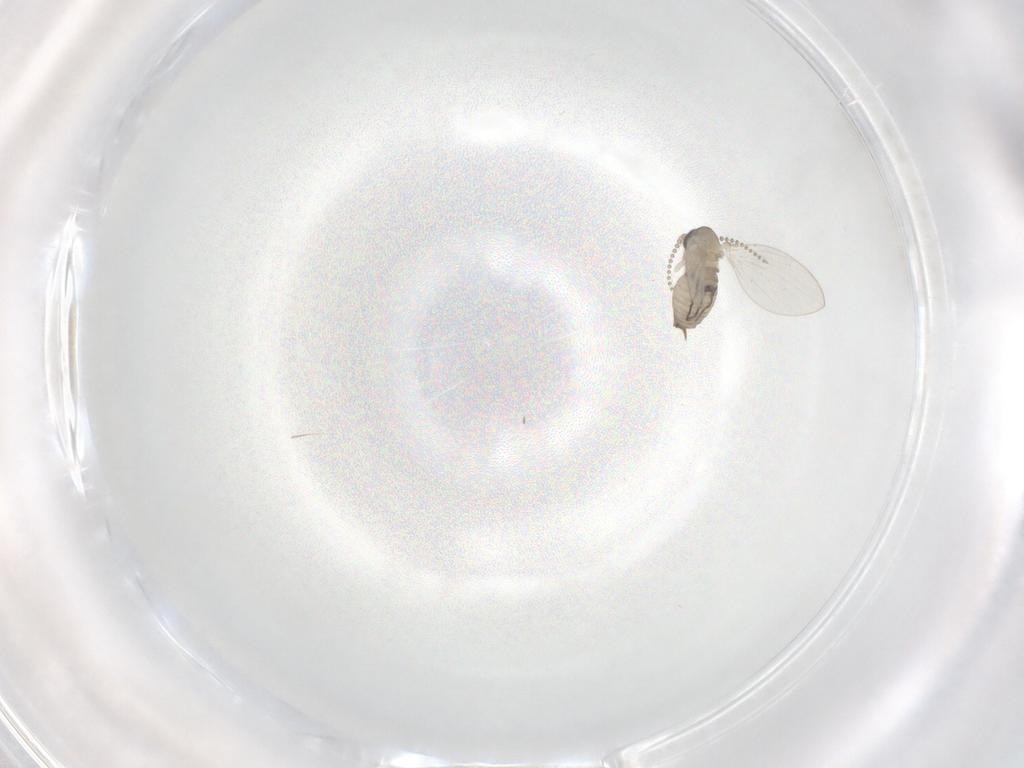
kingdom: Animalia
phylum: Arthropoda
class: Insecta
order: Diptera
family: Psychodidae
